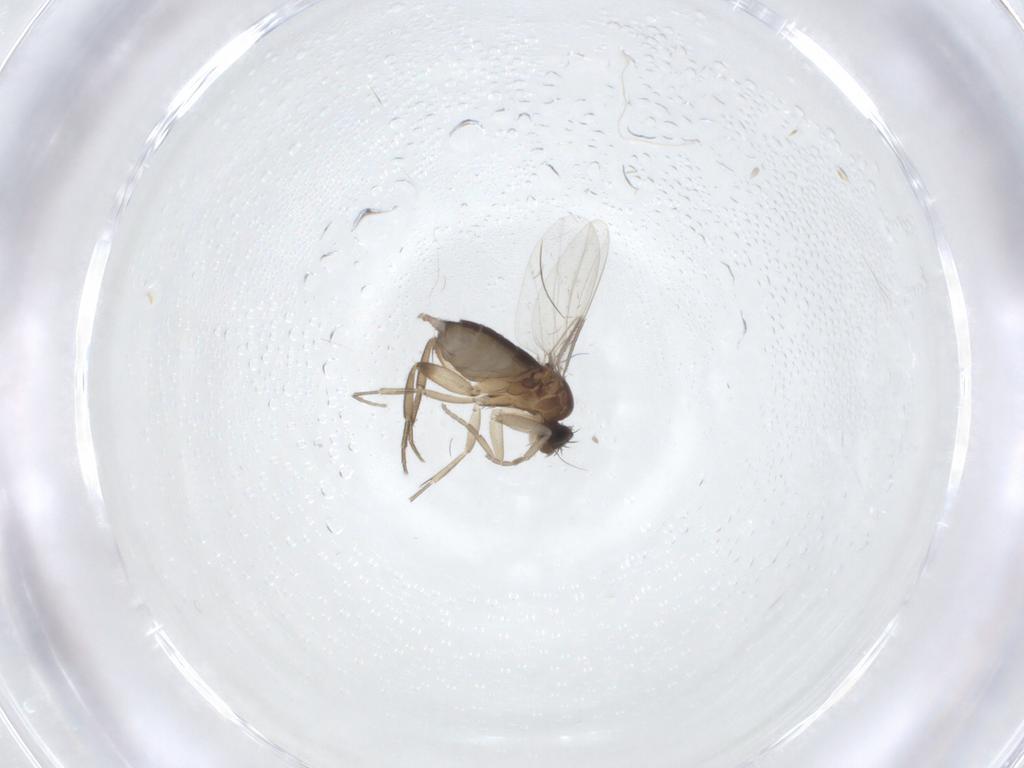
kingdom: Animalia
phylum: Arthropoda
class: Insecta
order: Diptera
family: Phoridae
